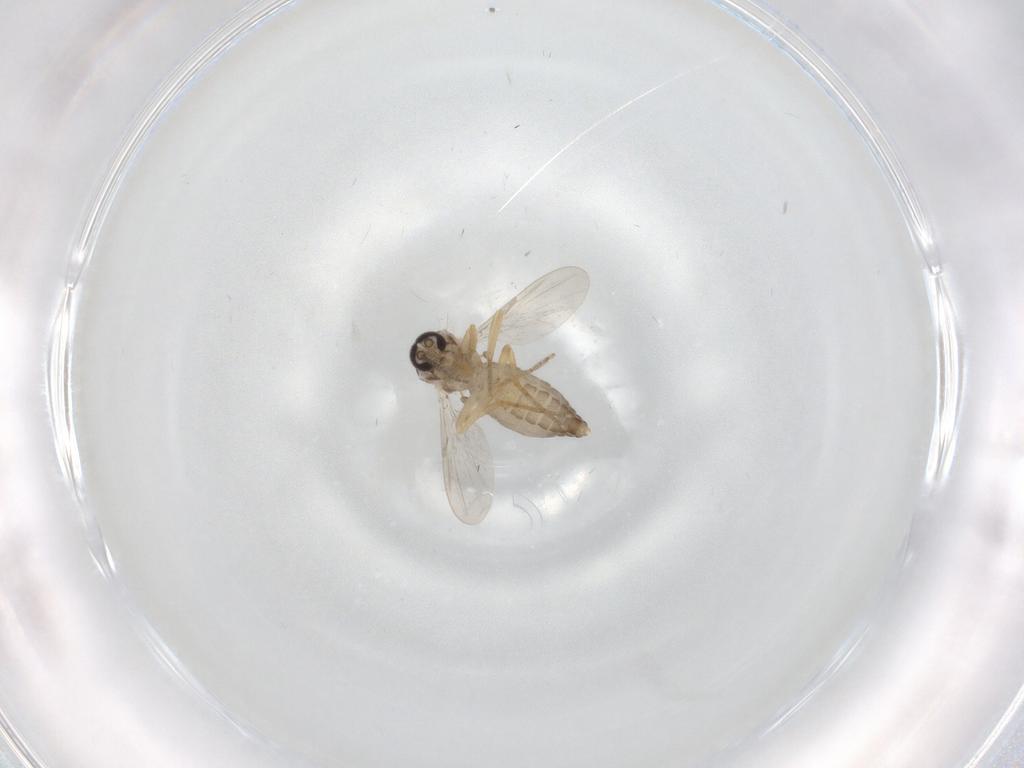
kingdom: Animalia
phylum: Arthropoda
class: Insecta
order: Diptera
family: Ceratopogonidae
